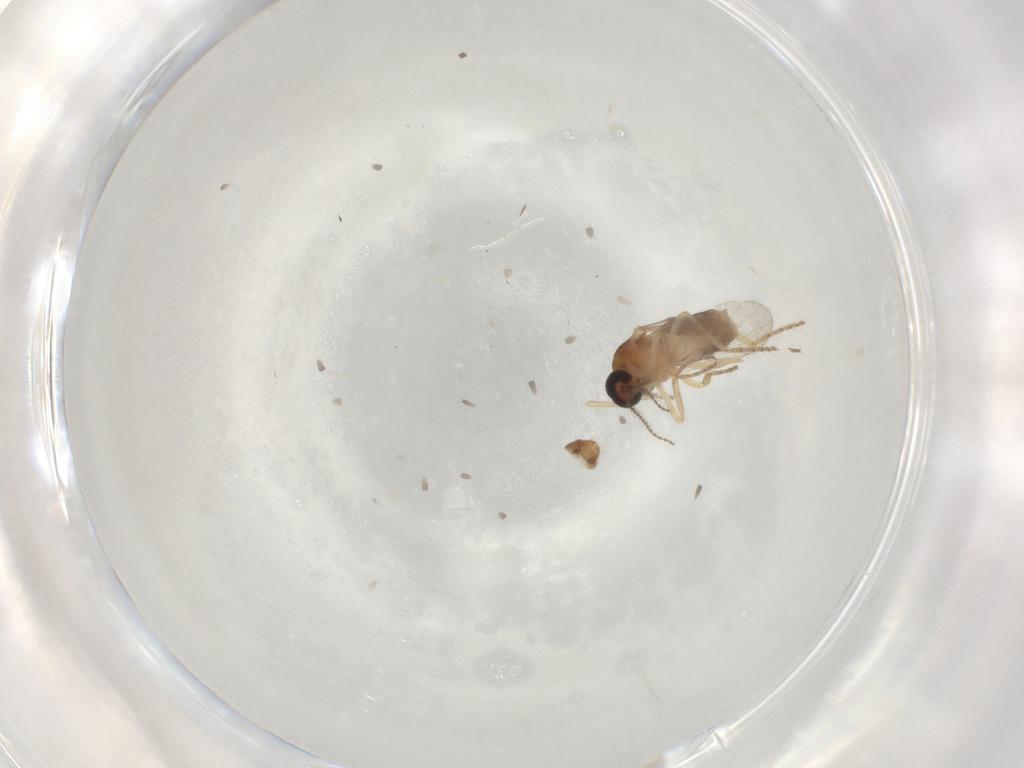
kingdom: Animalia
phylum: Arthropoda
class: Insecta
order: Diptera
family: Ceratopogonidae
